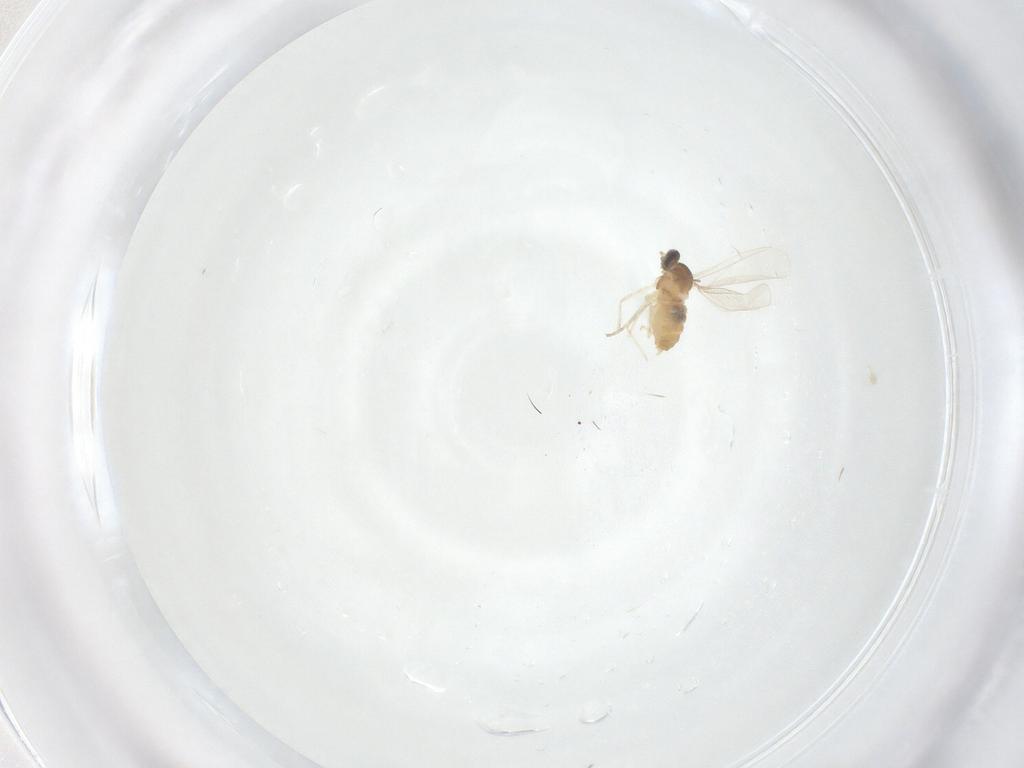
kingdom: Animalia
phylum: Arthropoda
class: Insecta
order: Diptera
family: Cecidomyiidae
